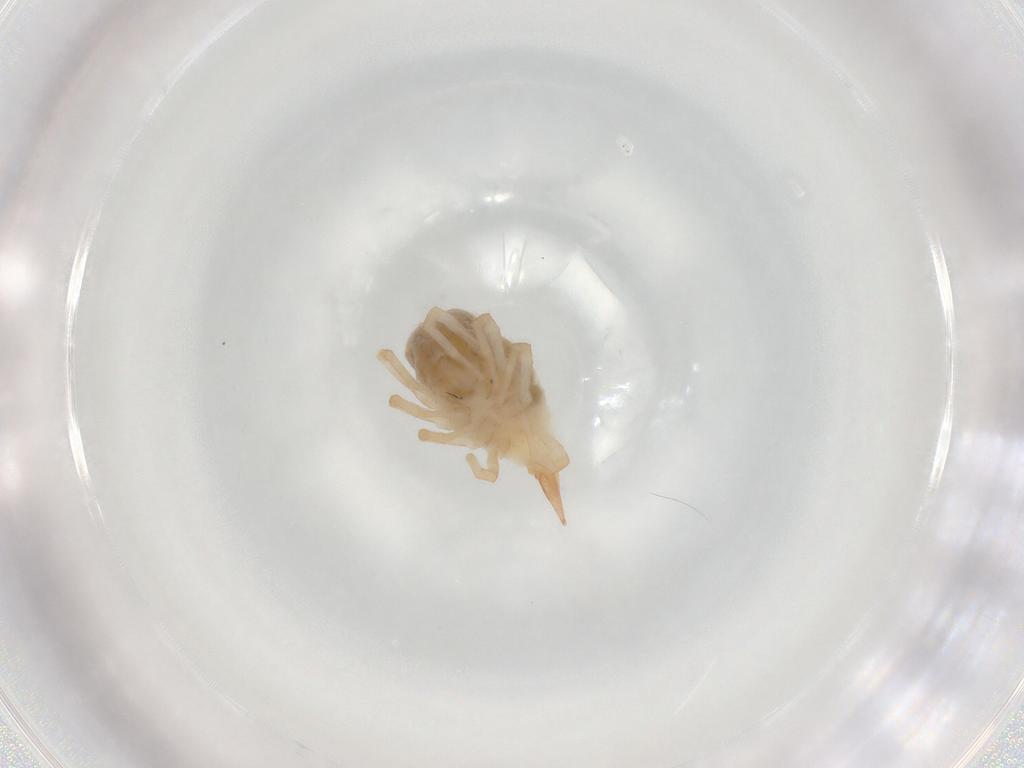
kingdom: Animalia
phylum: Arthropoda
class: Arachnida
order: Trombidiformes
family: Bdellidae
